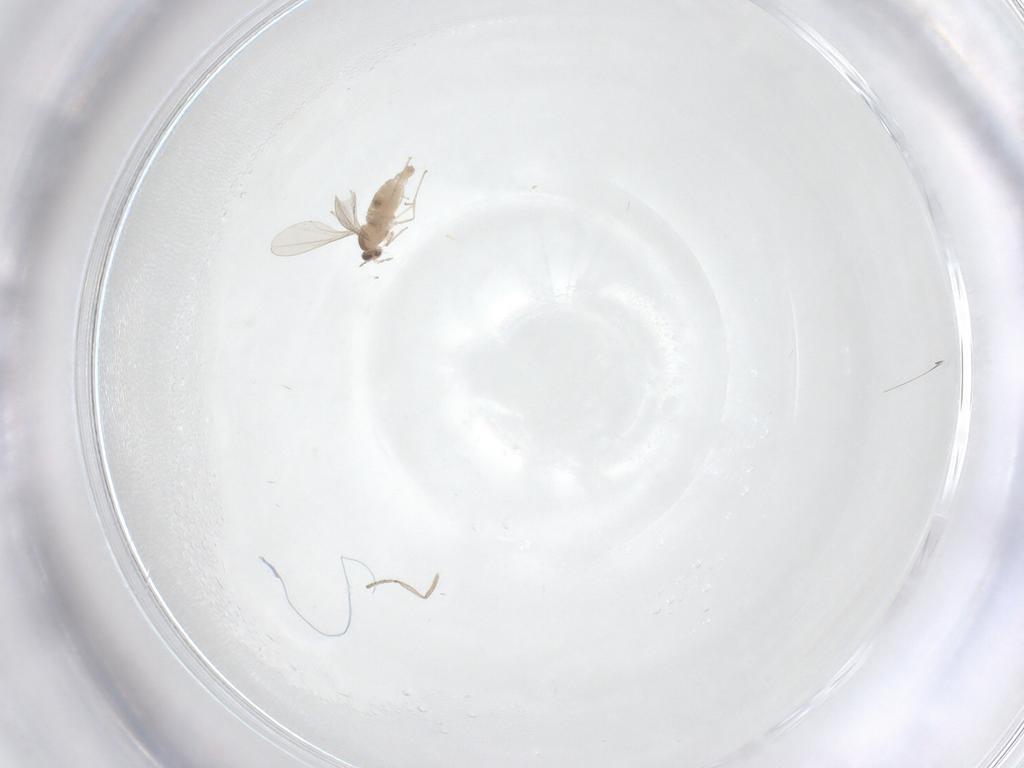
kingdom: Animalia
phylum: Arthropoda
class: Insecta
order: Diptera
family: Cecidomyiidae
